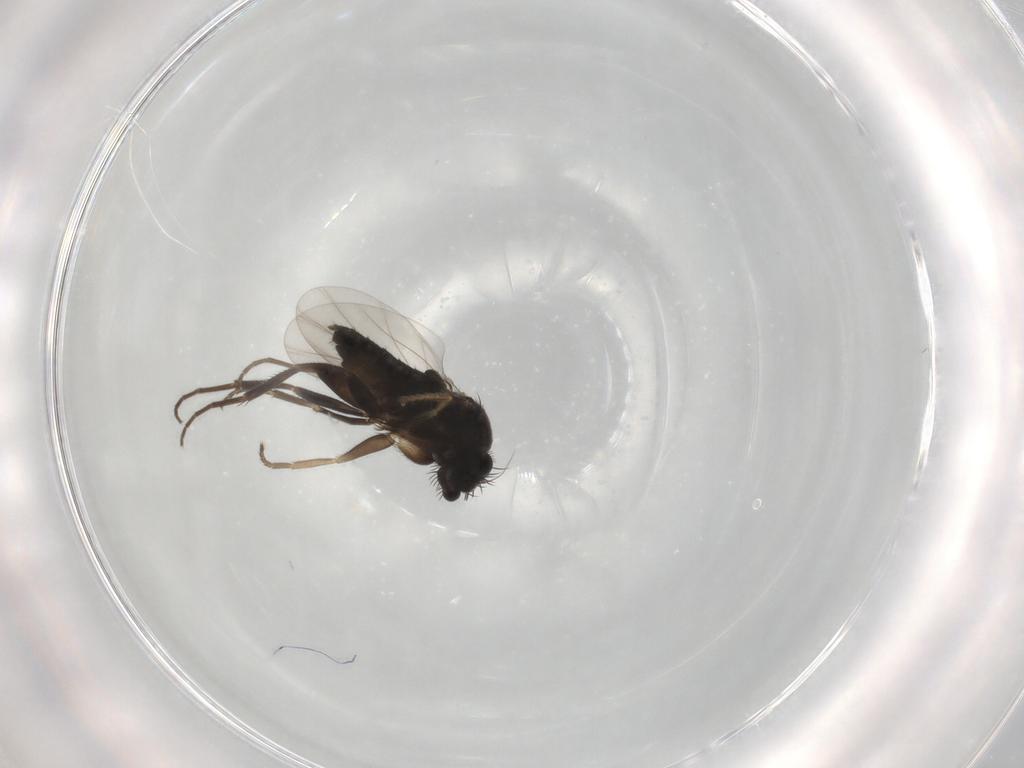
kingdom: Animalia
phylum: Arthropoda
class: Insecta
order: Diptera
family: Phoridae
